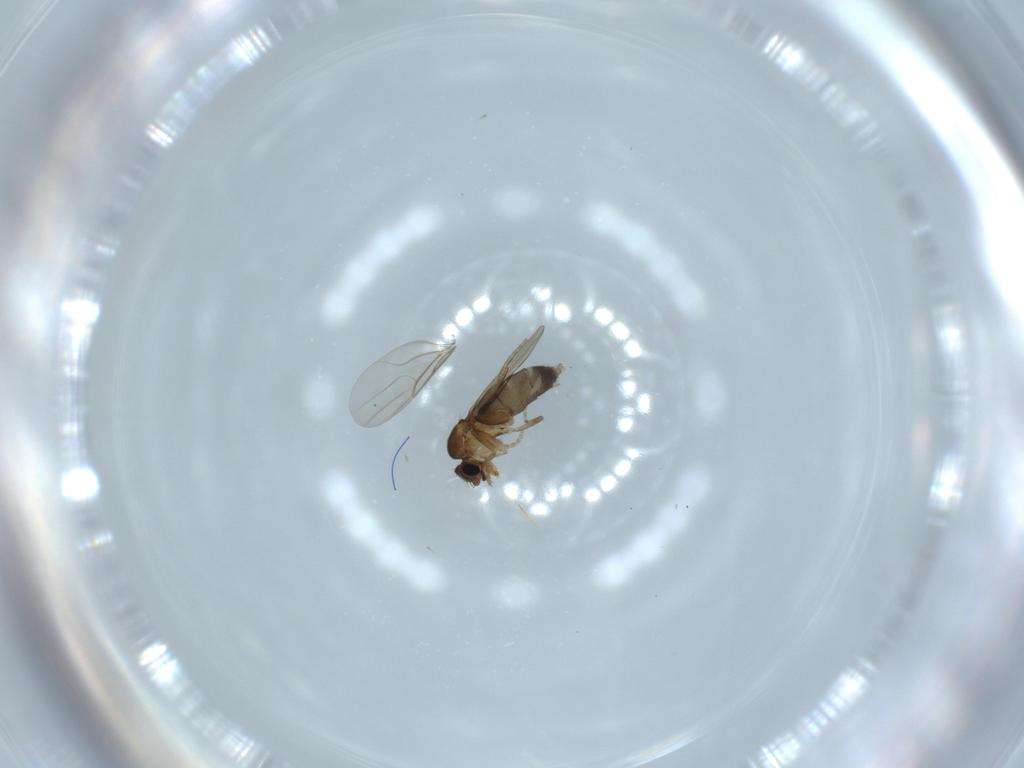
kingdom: Animalia
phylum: Arthropoda
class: Insecta
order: Diptera
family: Phoridae
